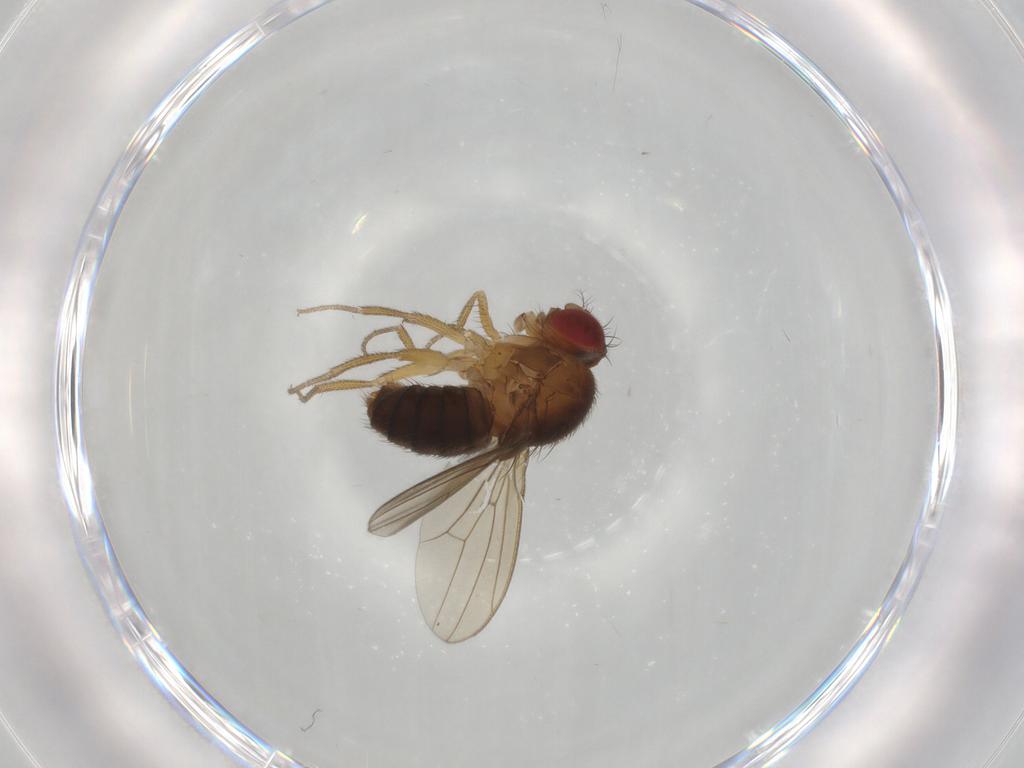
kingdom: Animalia
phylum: Arthropoda
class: Insecta
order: Diptera
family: Drosophilidae
